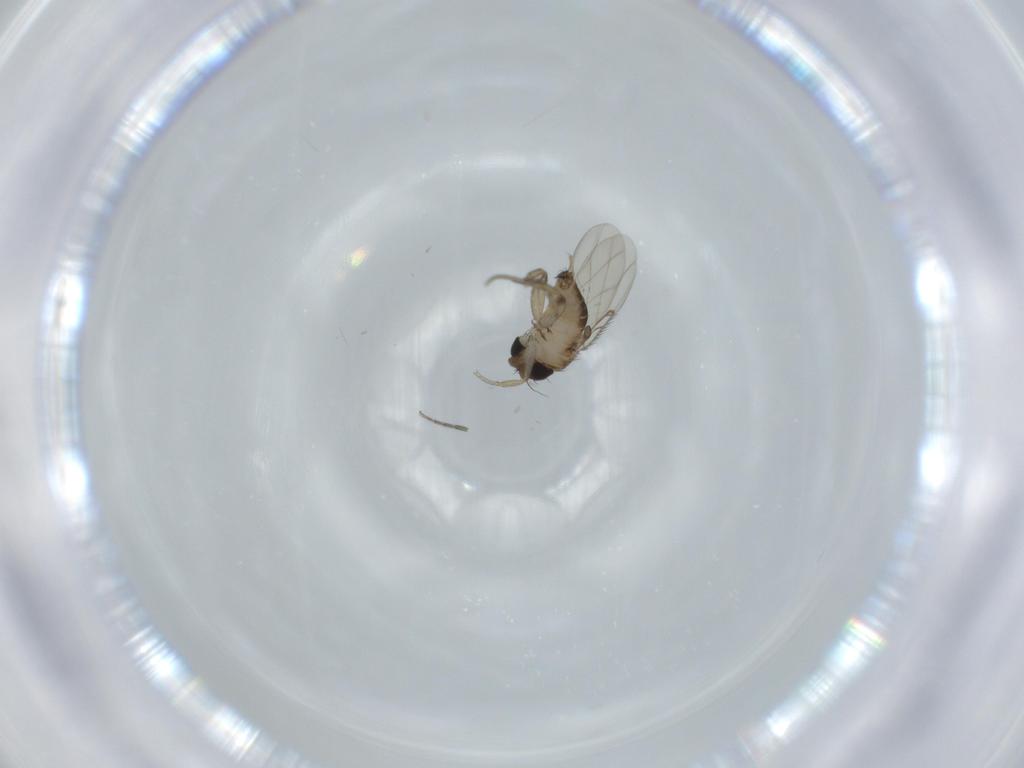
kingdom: Animalia
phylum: Arthropoda
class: Insecta
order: Diptera
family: Phoridae
